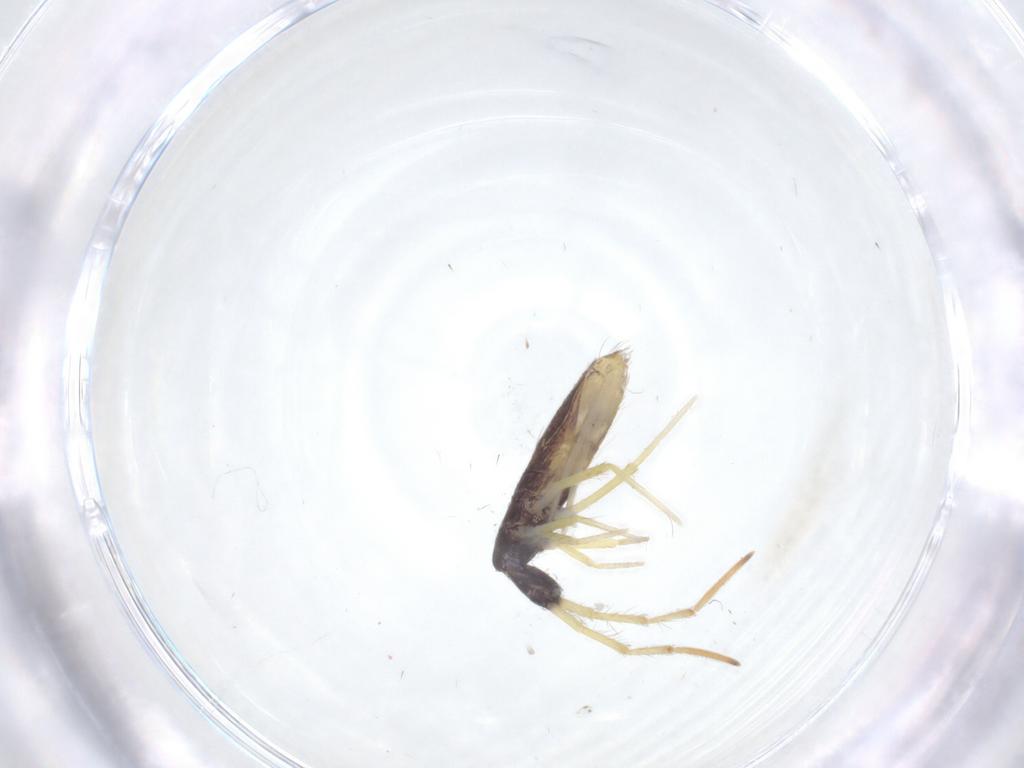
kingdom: Animalia
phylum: Arthropoda
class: Collembola
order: Entomobryomorpha
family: Entomobryidae
